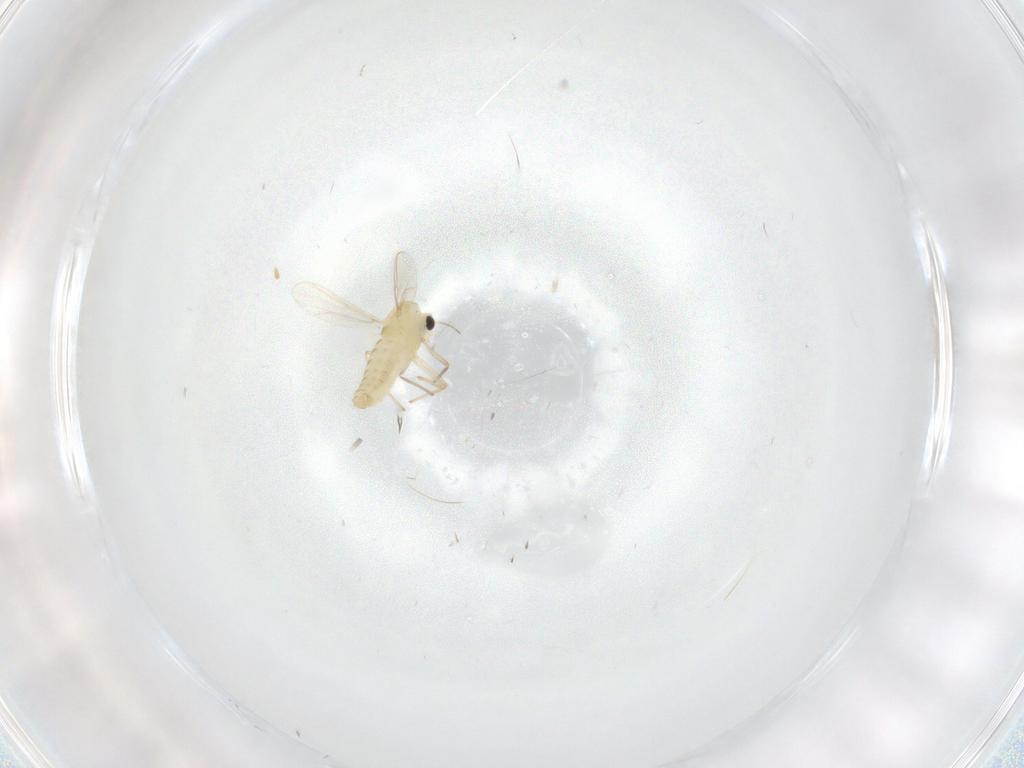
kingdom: Animalia
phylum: Arthropoda
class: Insecta
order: Diptera
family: Chironomidae
